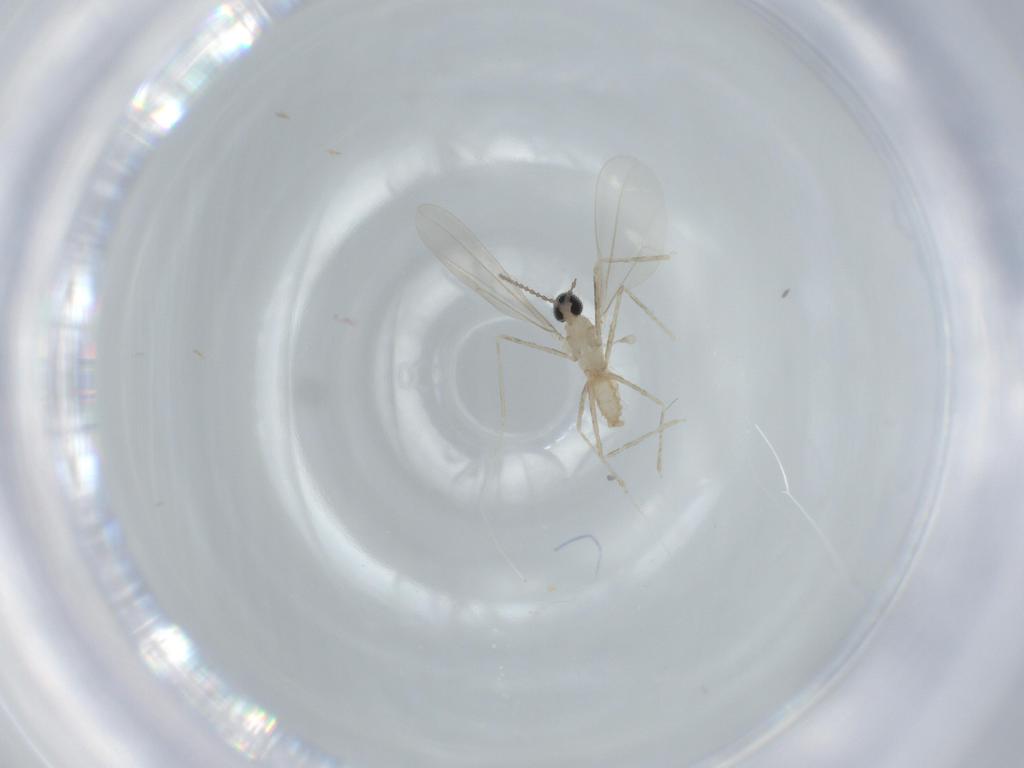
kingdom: Animalia
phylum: Arthropoda
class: Insecta
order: Diptera
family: Cecidomyiidae
